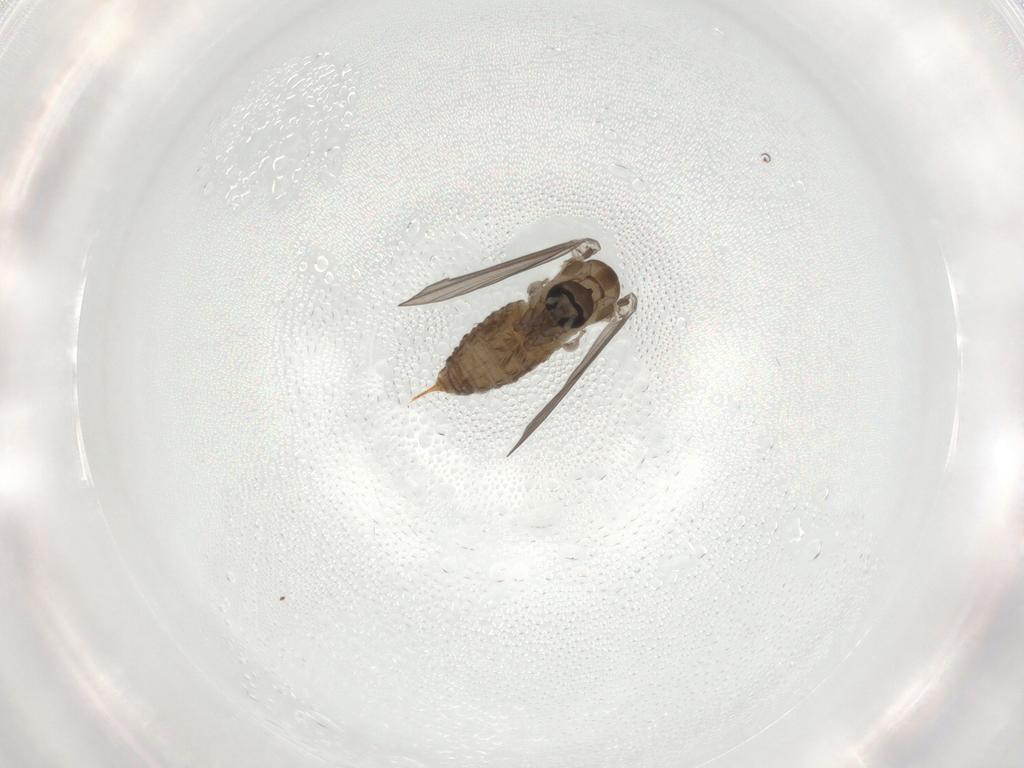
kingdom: Animalia
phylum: Arthropoda
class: Insecta
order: Diptera
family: Psychodidae
